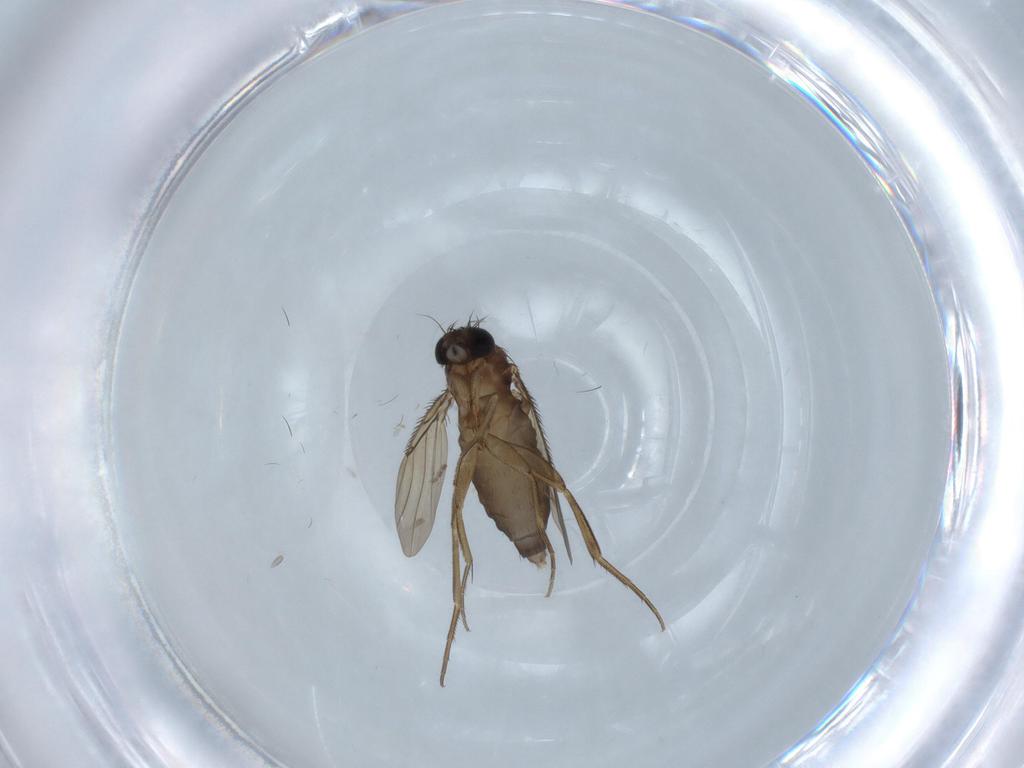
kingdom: Animalia
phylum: Arthropoda
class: Insecta
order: Diptera
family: Phoridae
